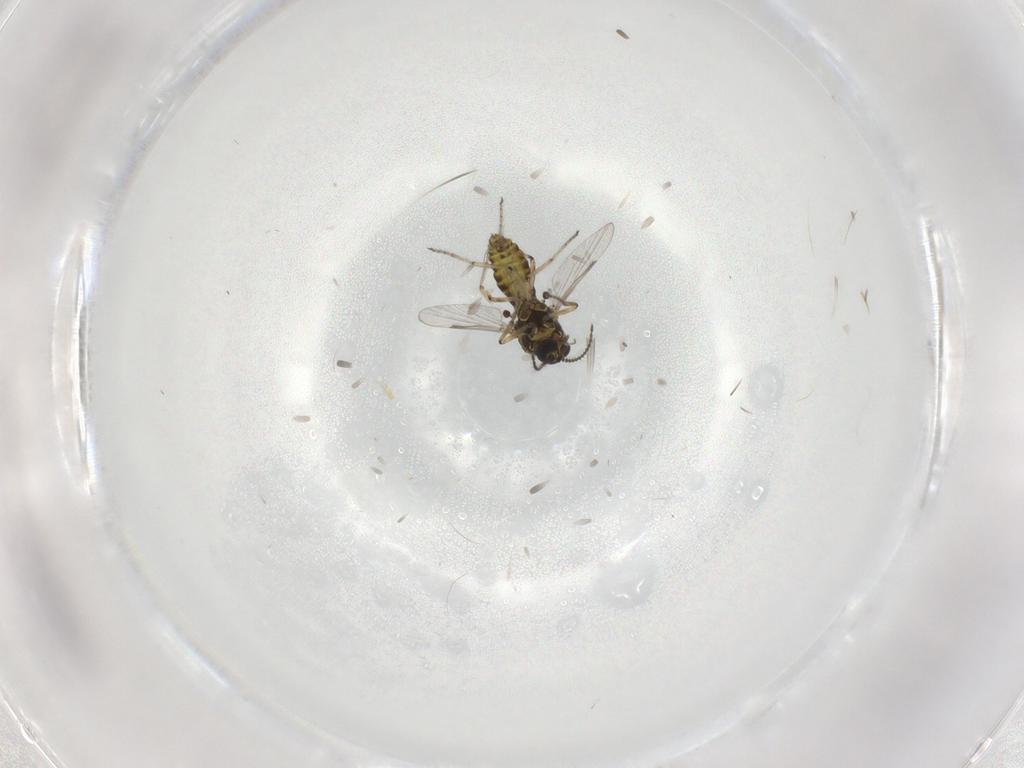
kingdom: Animalia
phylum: Arthropoda
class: Insecta
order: Diptera
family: Ceratopogonidae
